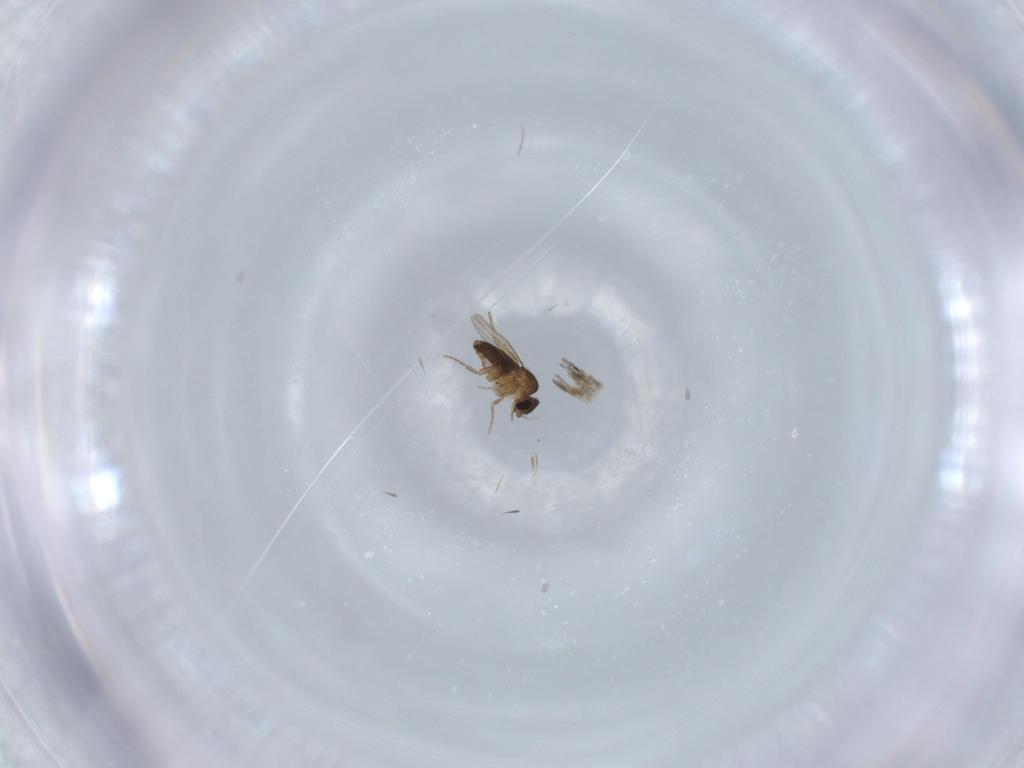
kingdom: Animalia
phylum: Arthropoda
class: Insecta
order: Diptera
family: Phoridae
